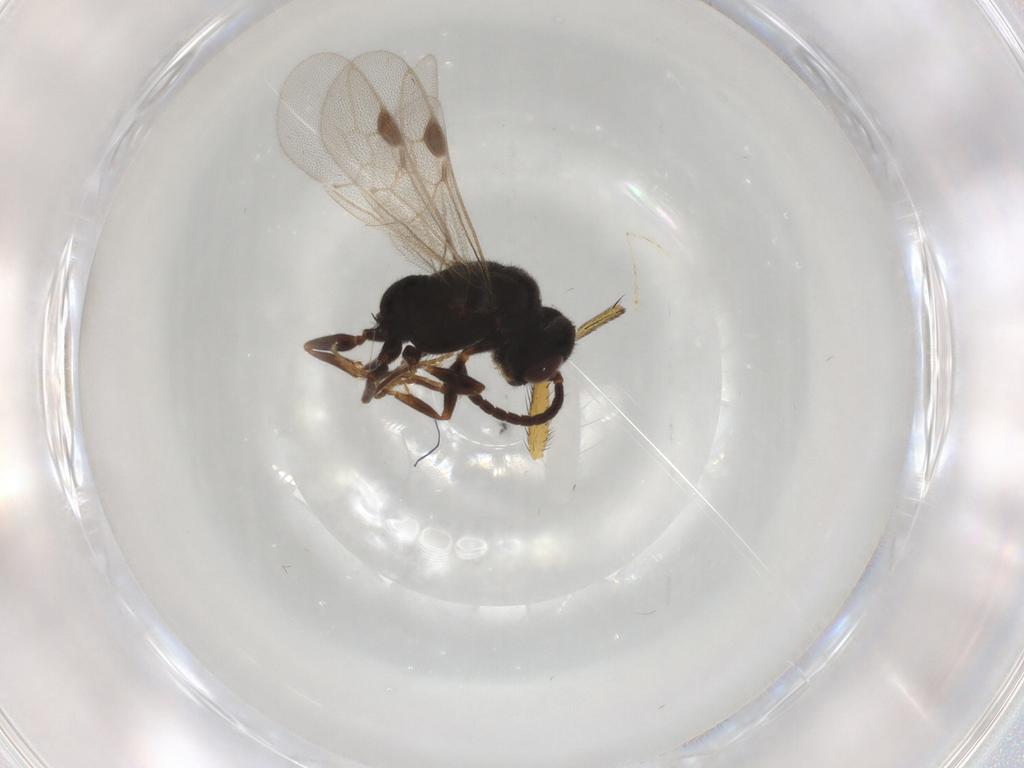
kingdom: Animalia
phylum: Arthropoda
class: Insecta
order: Hymenoptera
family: Formicidae
